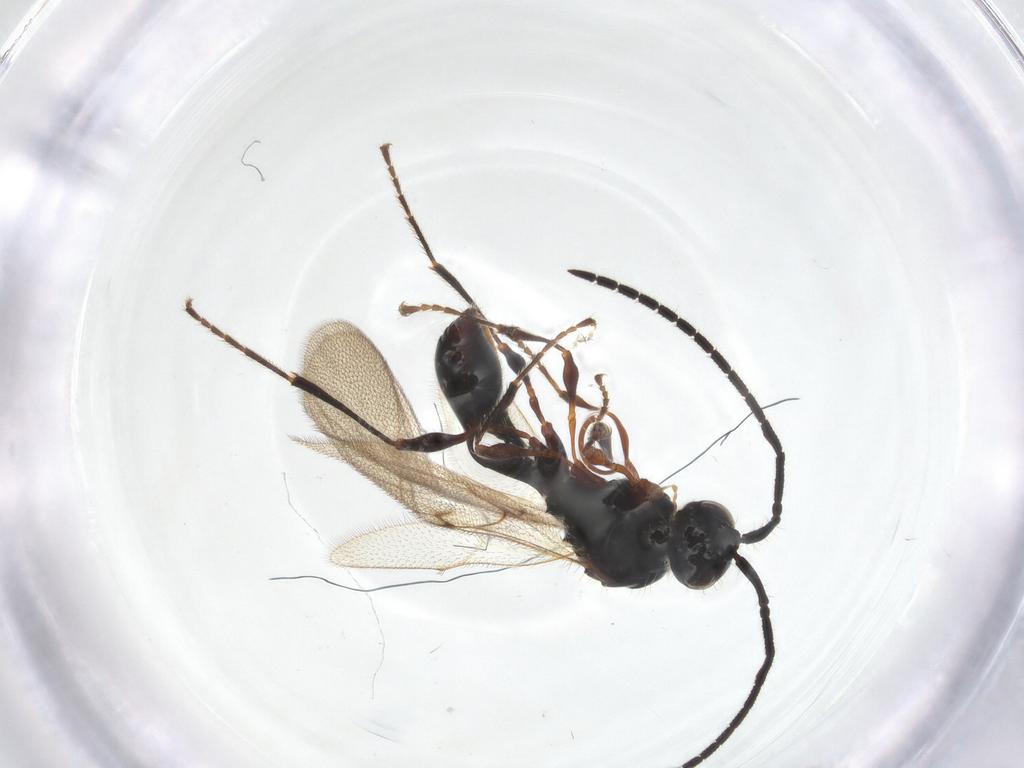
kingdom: Animalia
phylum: Arthropoda
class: Insecta
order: Hymenoptera
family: Diapriidae
